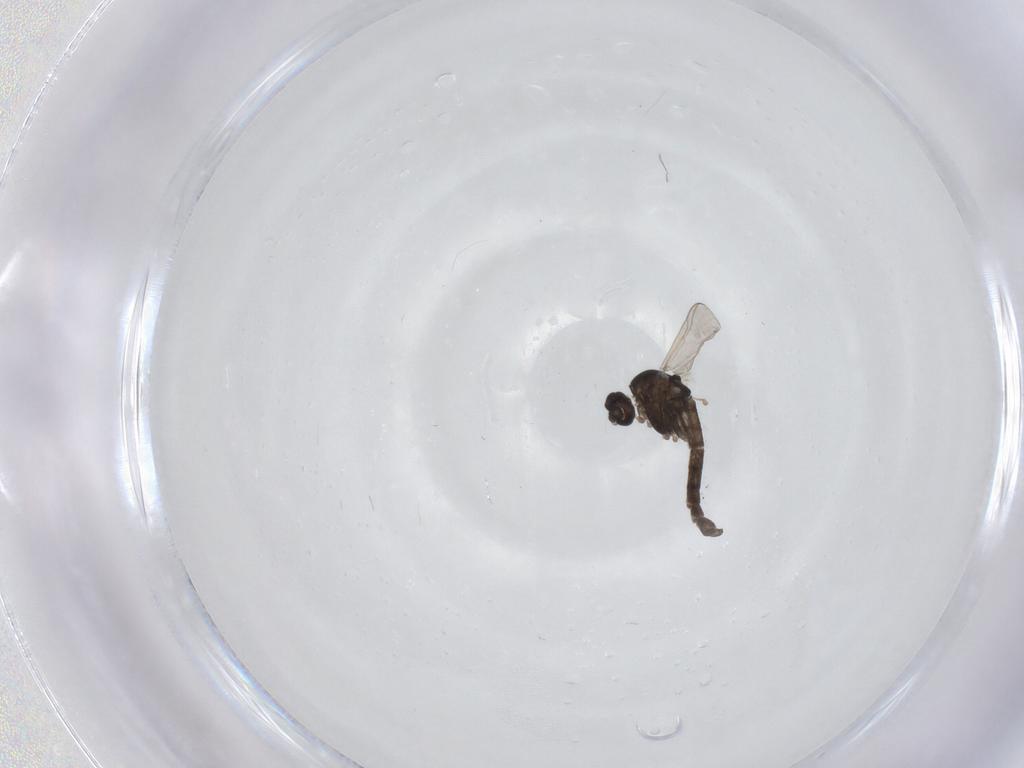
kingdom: Animalia
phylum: Arthropoda
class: Insecta
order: Diptera
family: Chironomidae
